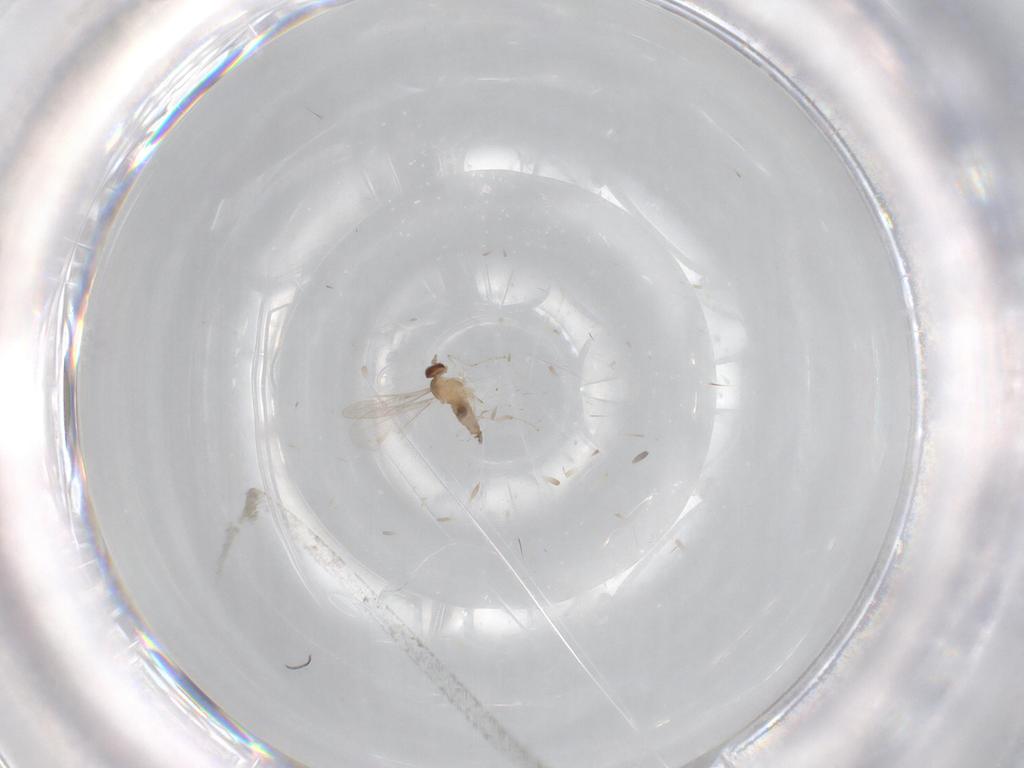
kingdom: Animalia
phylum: Arthropoda
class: Insecta
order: Diptera
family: Cecidomyiidae
